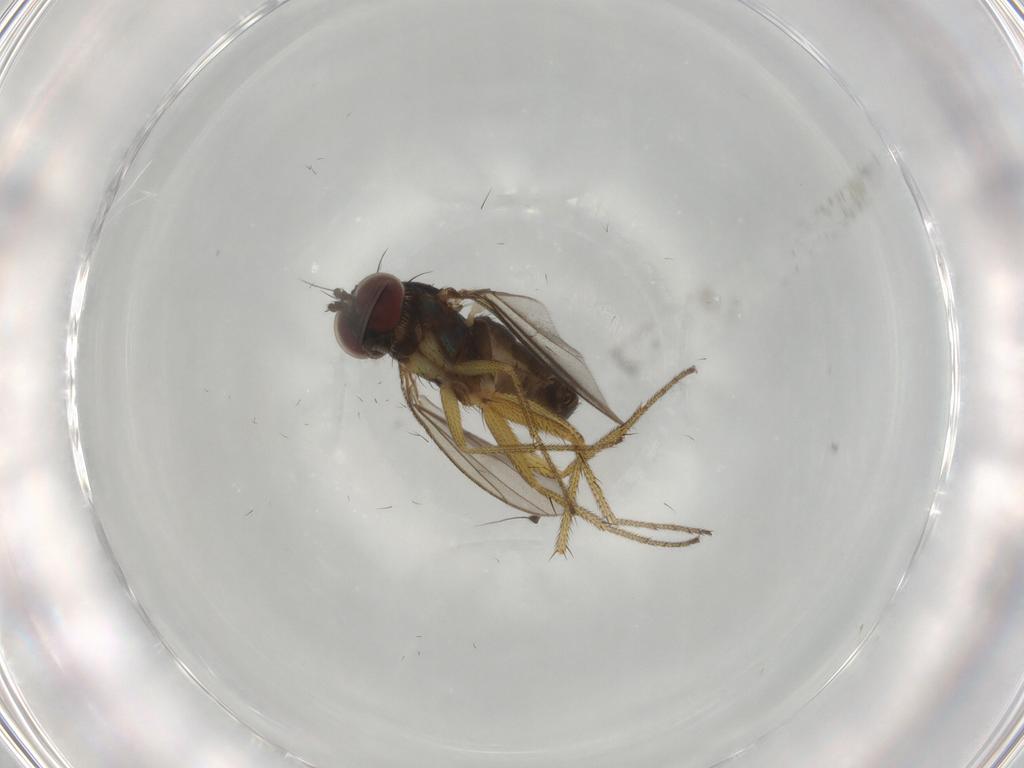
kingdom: Animalia
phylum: Arthropoda
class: Insecta
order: Diptera
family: Dolichopodidae
